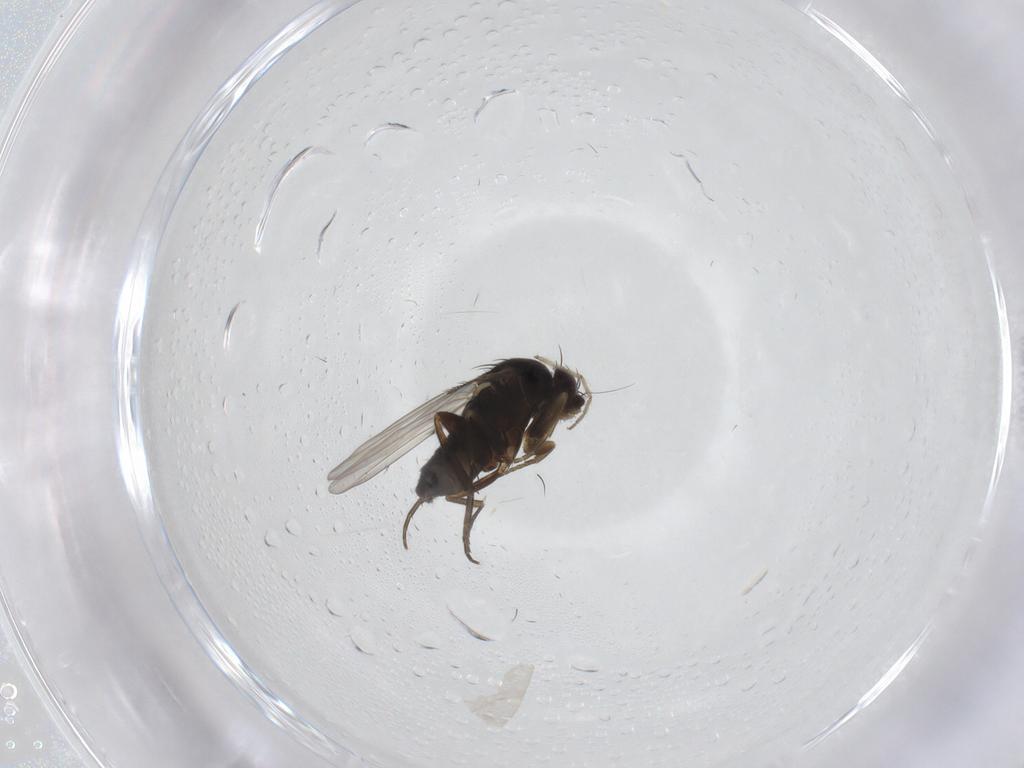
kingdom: Animalia
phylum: Arthropoda
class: Insecta
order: Diptera
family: Phoridae
